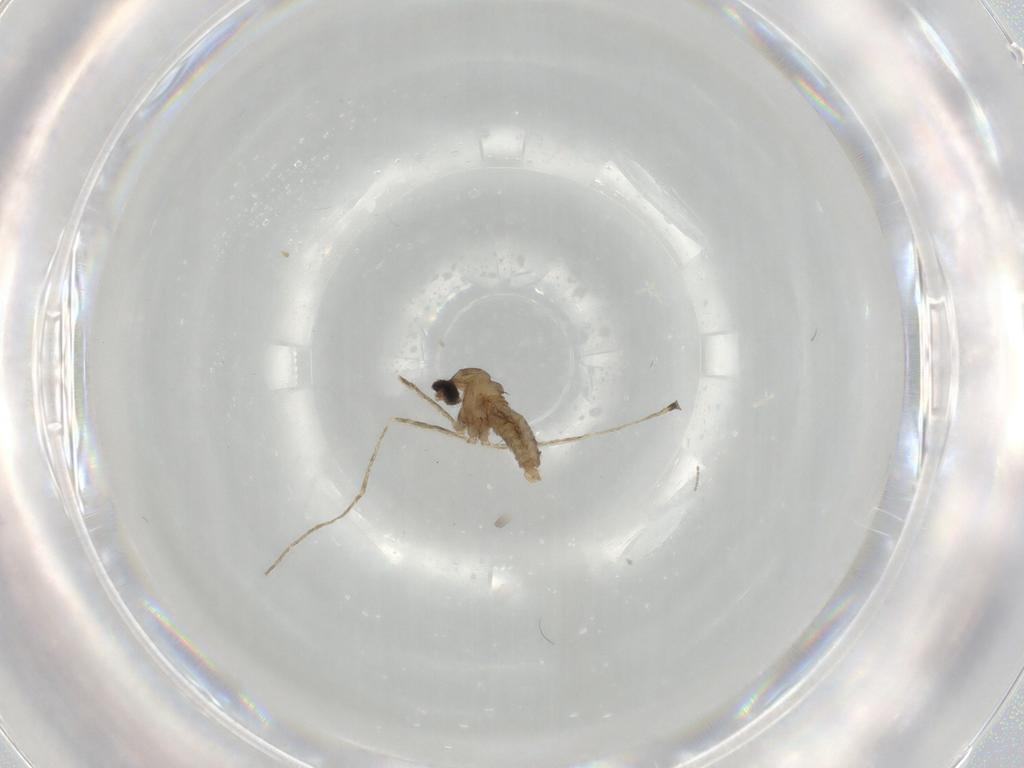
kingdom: Animalia
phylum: Arthropoda
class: Insecta
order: Diptera
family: Cecidomyiidae
